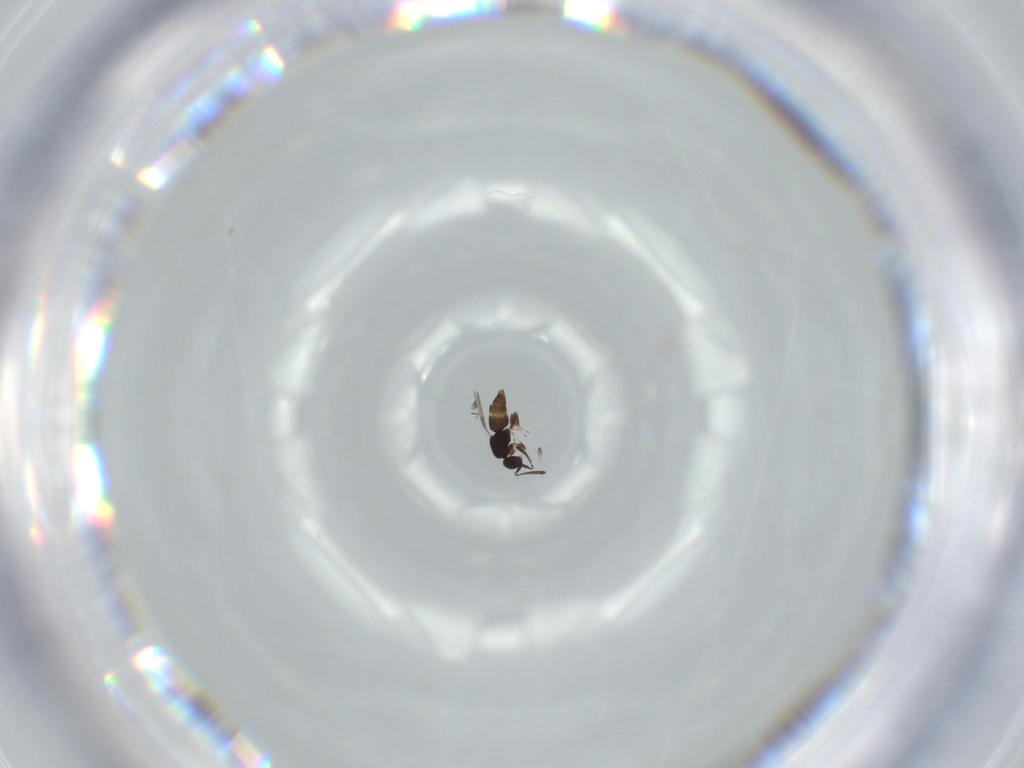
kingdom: Animalia
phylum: Arthropoda
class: Insecta
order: Hymenoptera
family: Ceraphronidae
